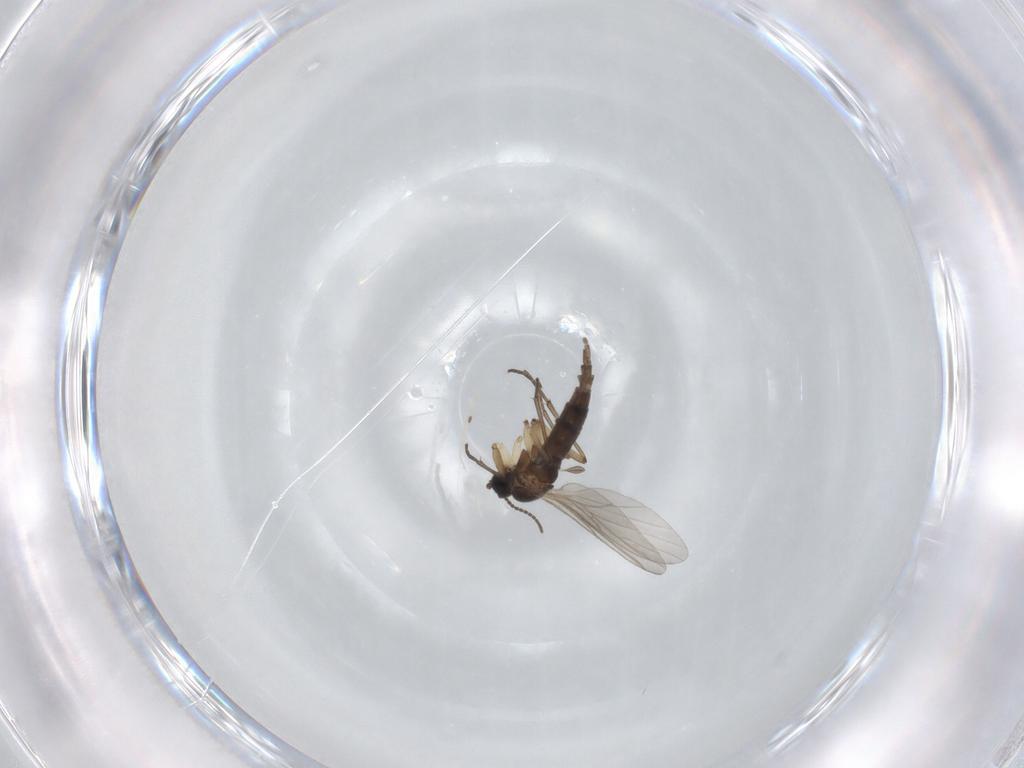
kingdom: Animalia
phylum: Arthropoda
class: Insecta
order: Diptera
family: Sciaridae
